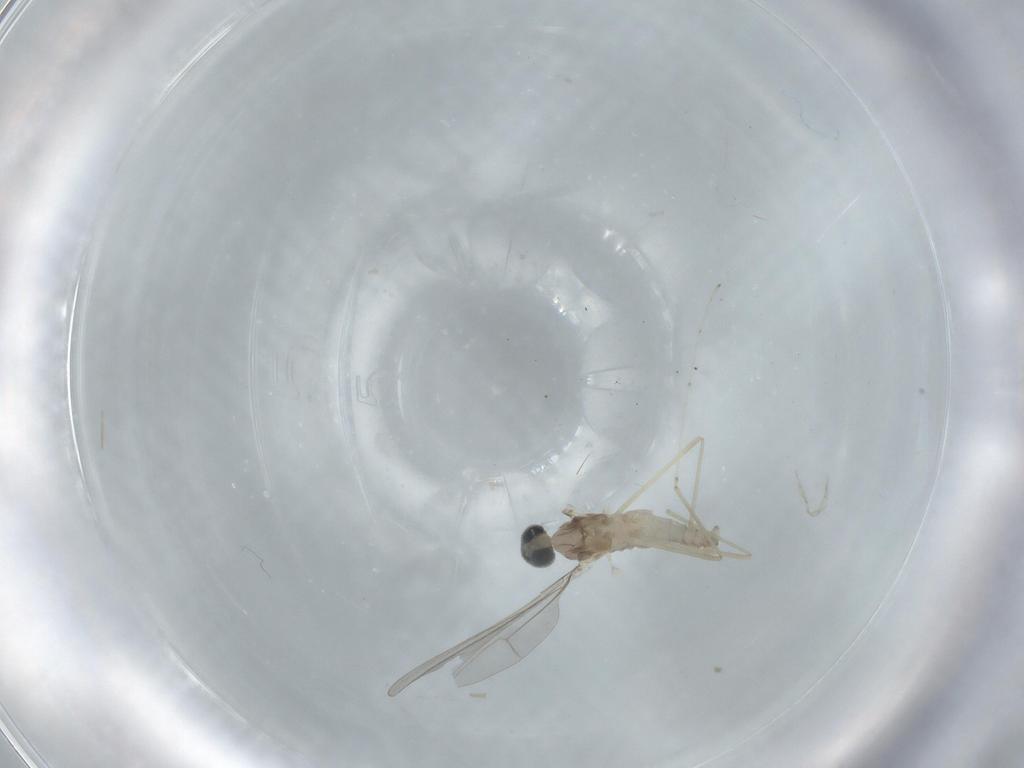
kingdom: Animalia
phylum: Arthropoda
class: Insecta
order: Diptera
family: Cecidomyiidae
